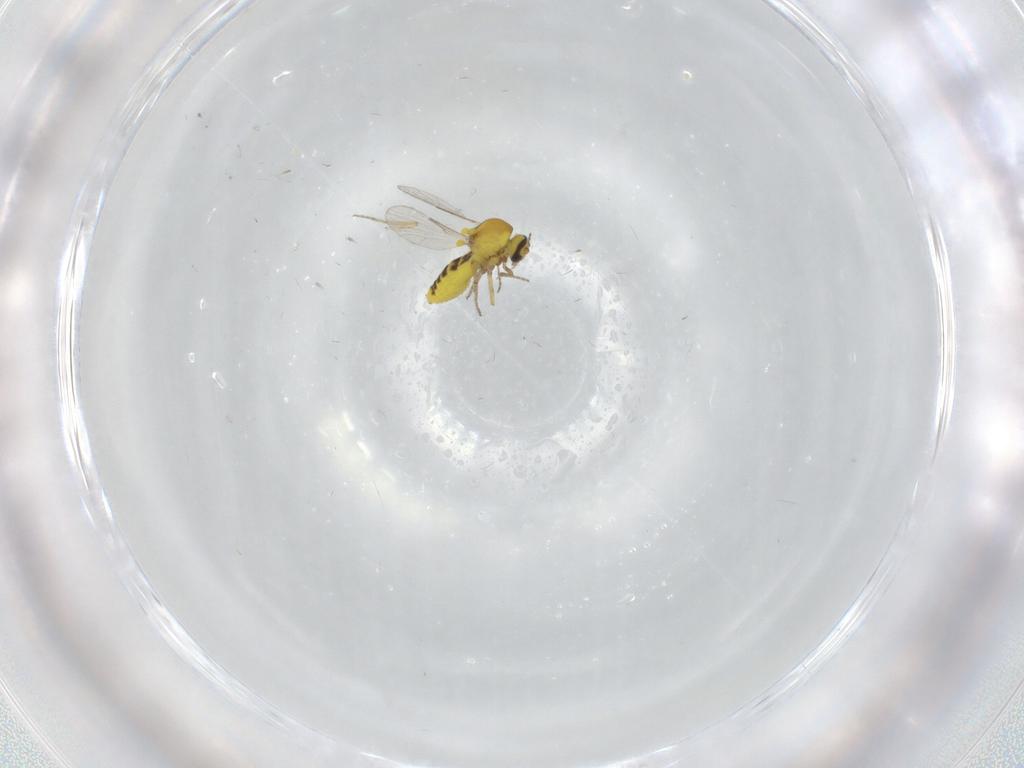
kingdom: Animalia
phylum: Arthropoda
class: Insecta
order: Diptera
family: Ceratopogonidae
